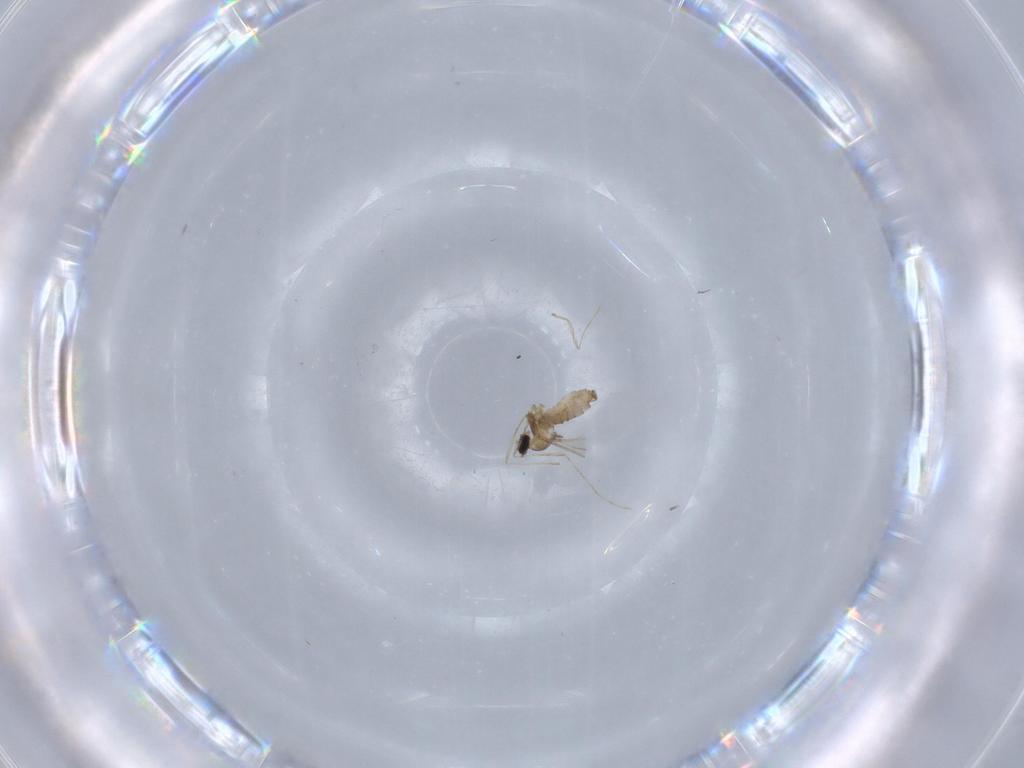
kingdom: Animalia
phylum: Arthropoda
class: Insecta
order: Diptera
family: Cecidomyiidae
